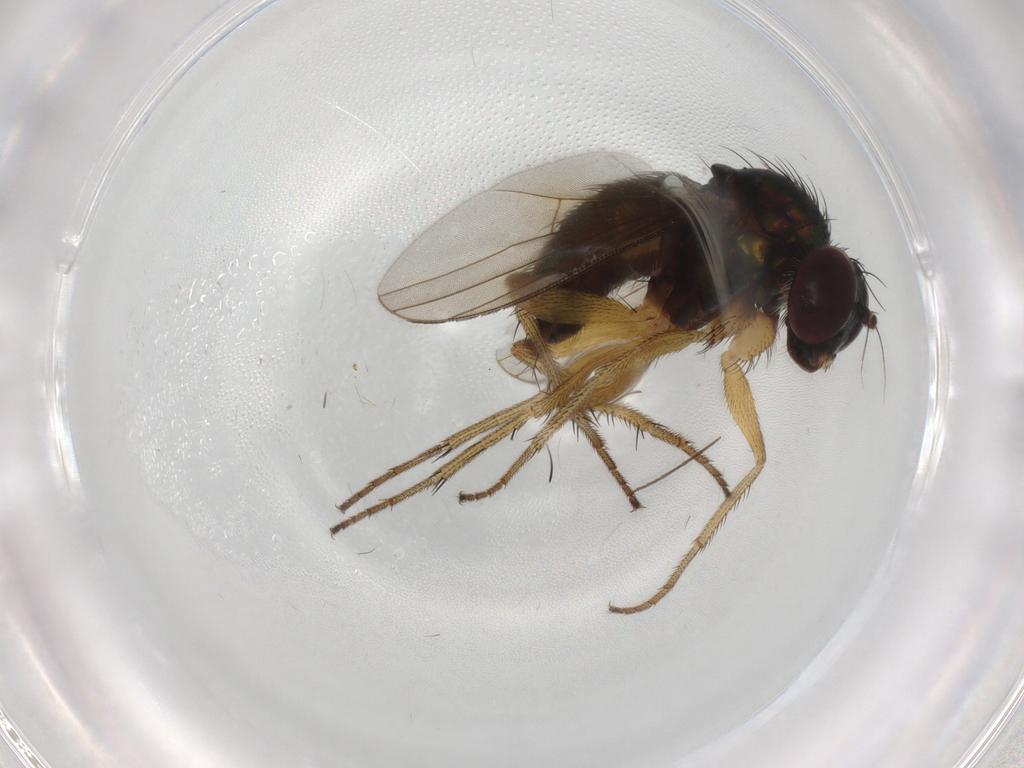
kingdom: Animalia
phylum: Arthropoda
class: Insecta
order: Diptera
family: Dolichopodidae
